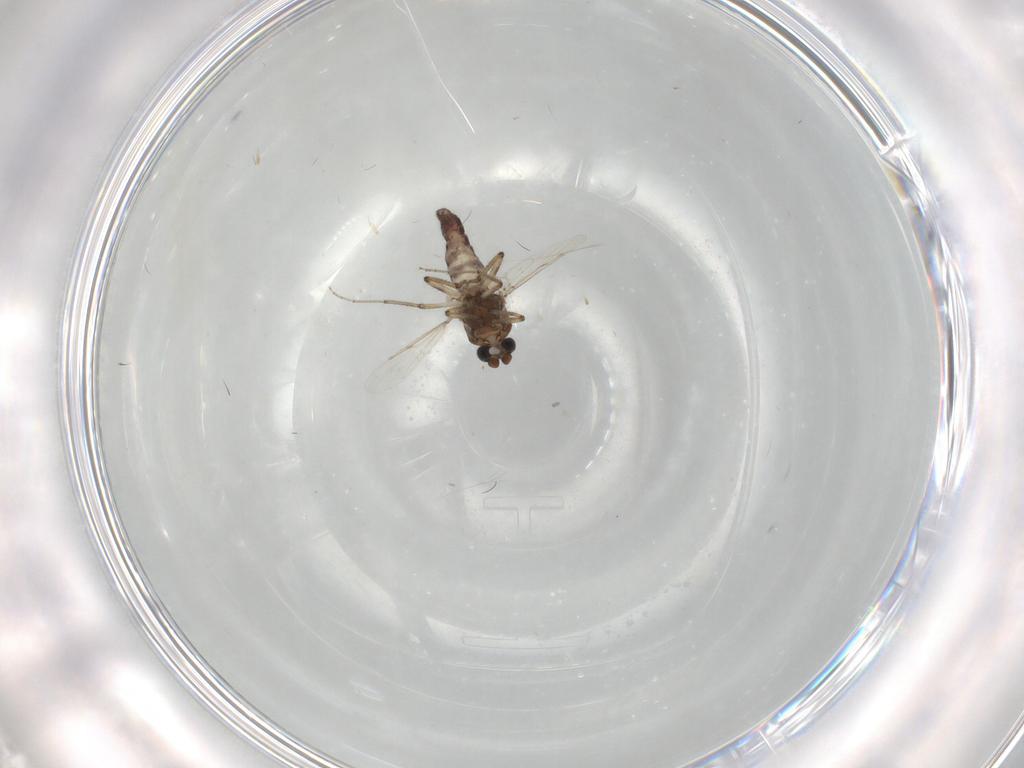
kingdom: Animalia
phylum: Arthropoda
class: Insecta
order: Diptera
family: Ceratopogonidae
